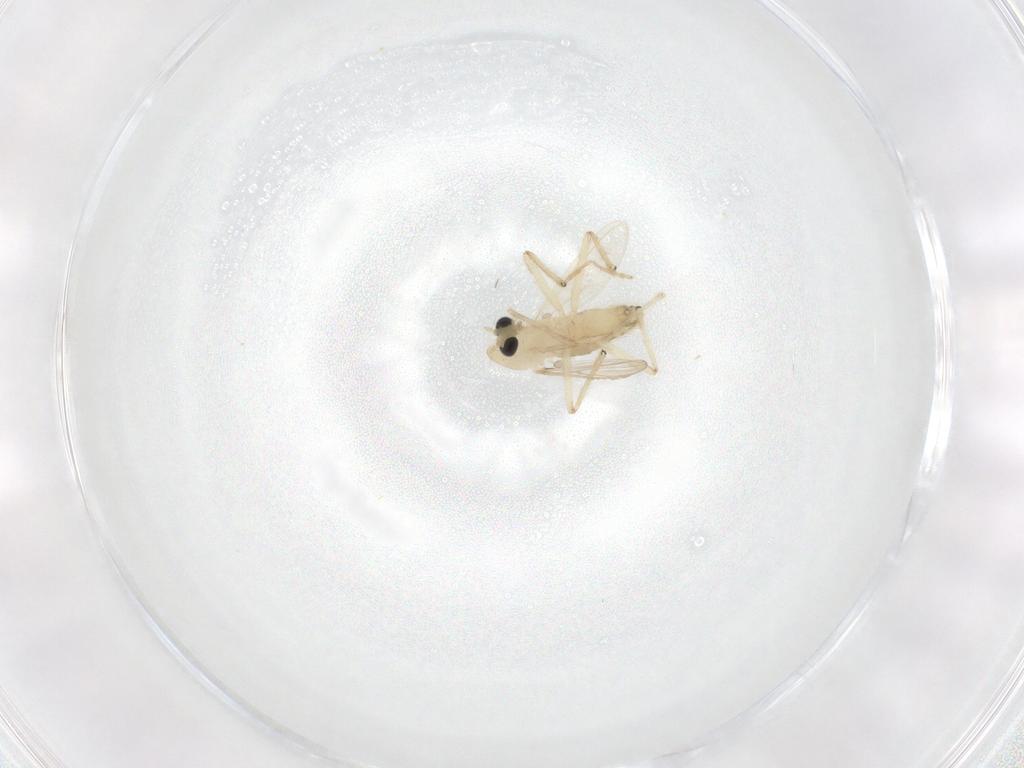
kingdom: Animalia
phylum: Arthropoda
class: Insecta
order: Diptera
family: Chironomidae
